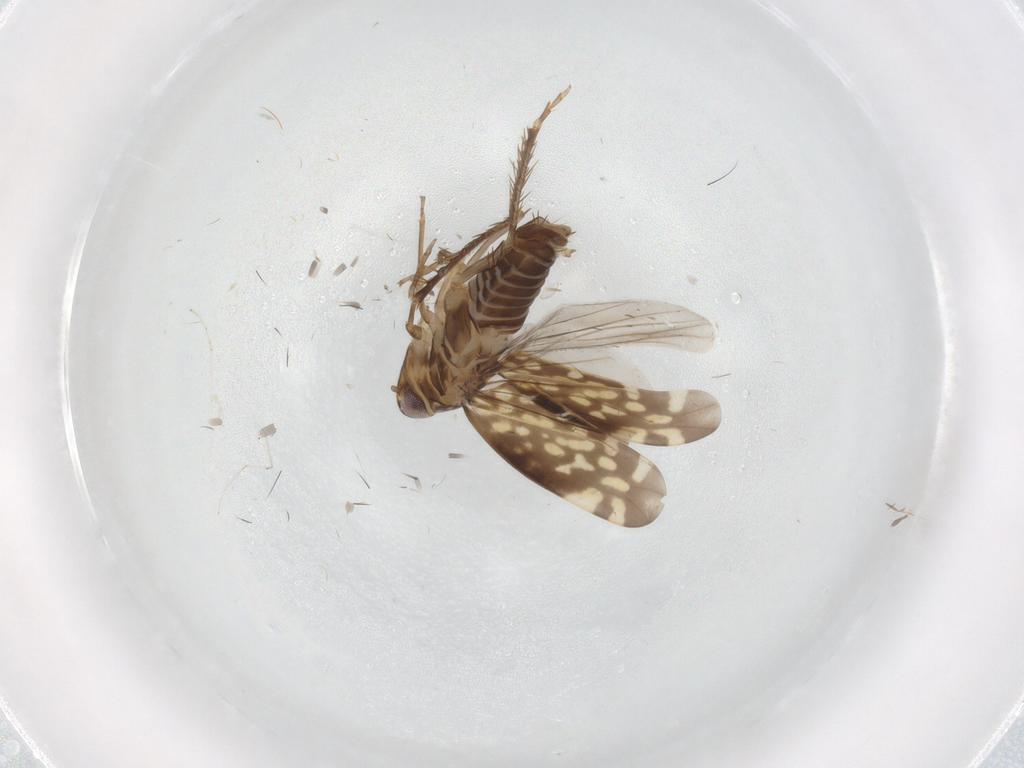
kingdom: Animalia
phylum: Arthropoda
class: Insecta
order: Hemiptera
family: Cicadellidae
